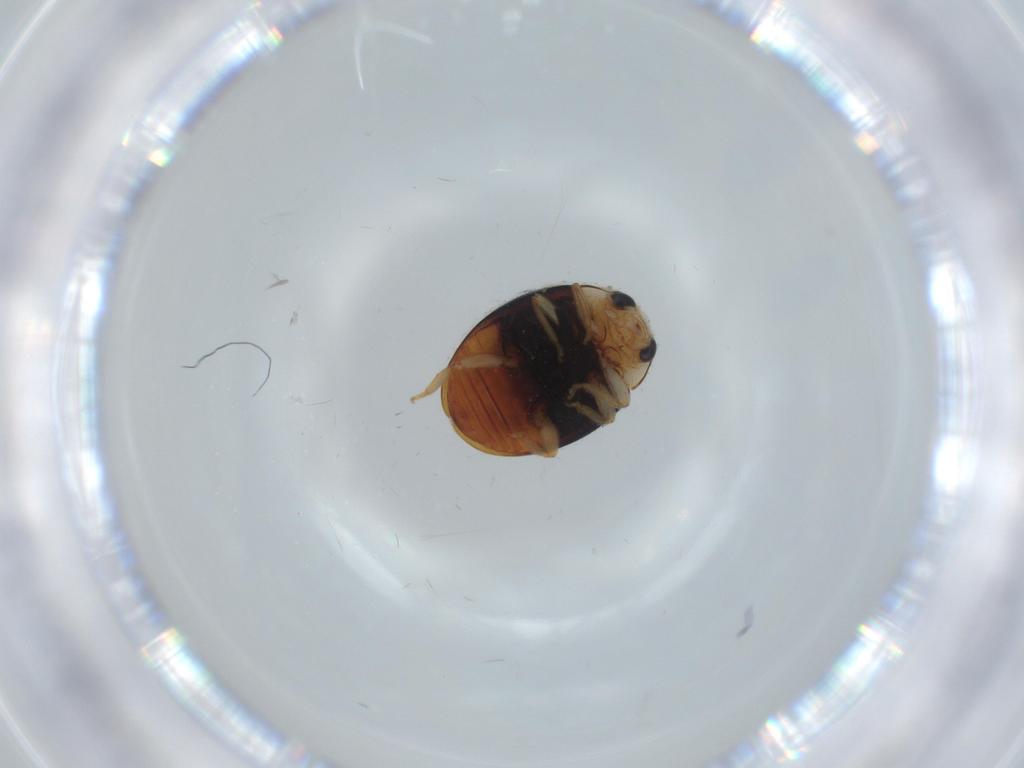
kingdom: Animalia
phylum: Arthropoda
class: Insecta
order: Coleoptera
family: Coccinellidae
